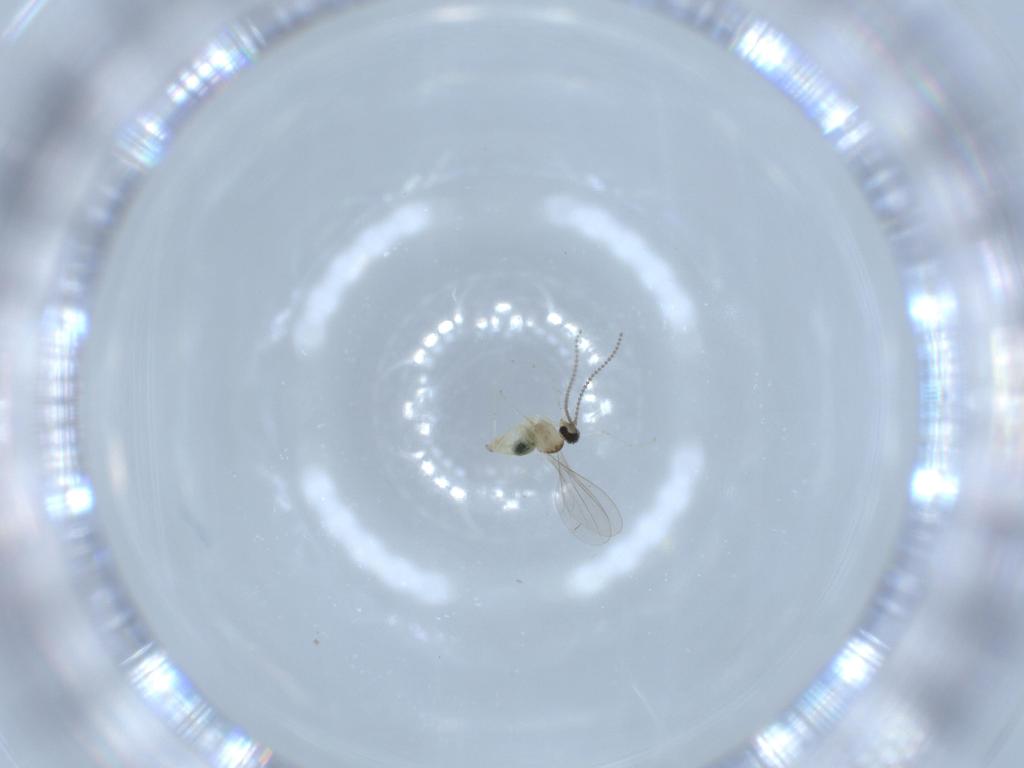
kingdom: Animalia
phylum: Arthropoda
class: Insecta
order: Diptera
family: Cecidomyiidae
